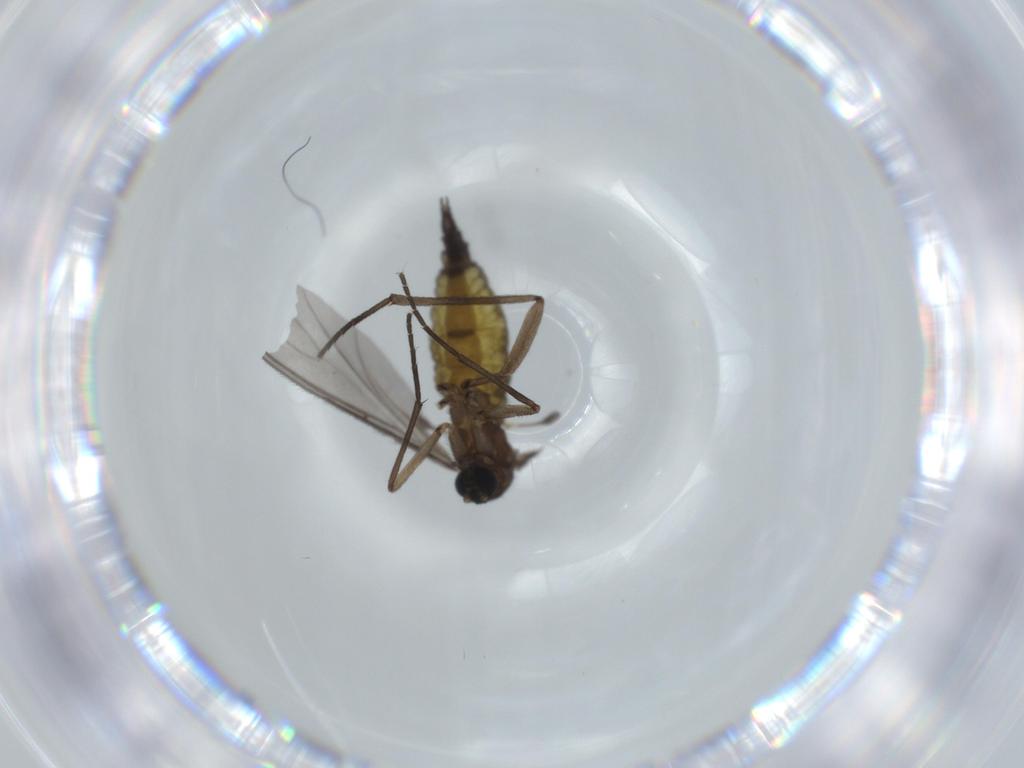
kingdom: Animalia
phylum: Arthropoda
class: Insecta
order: Diptera
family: Sciaridae
